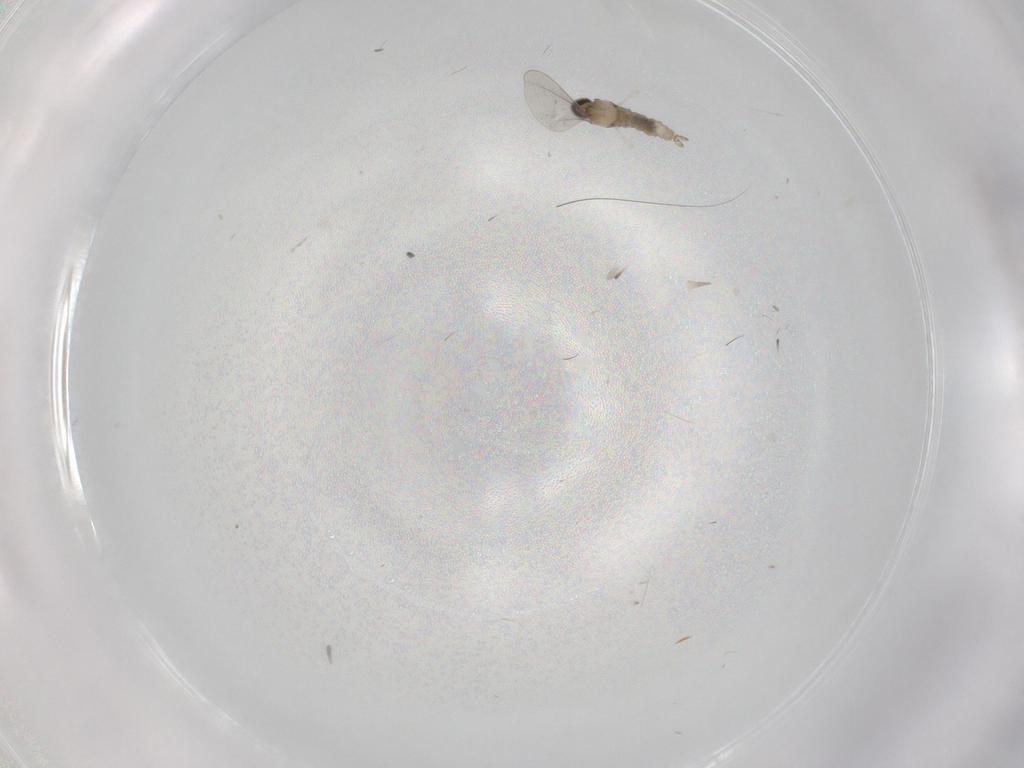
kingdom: Animalia
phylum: Arthropoda
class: Insecta
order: Diptera
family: Cecidomyiidae
